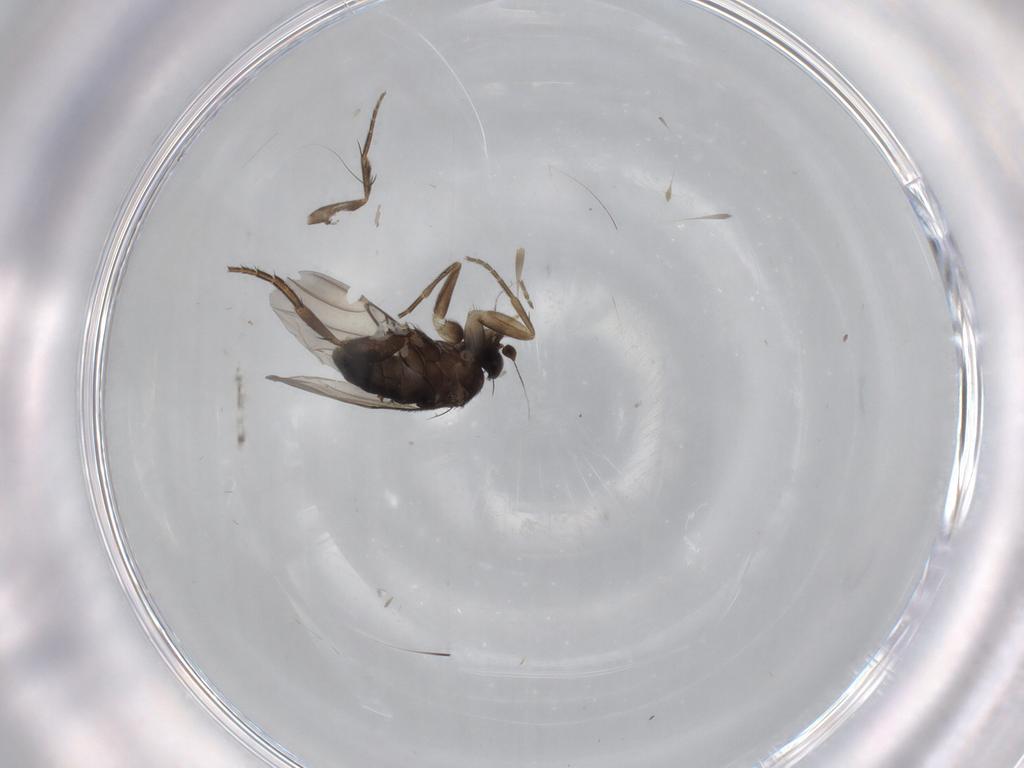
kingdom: Animalia
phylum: Arthropoda
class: Insecta
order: Diptera
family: Phoridae
